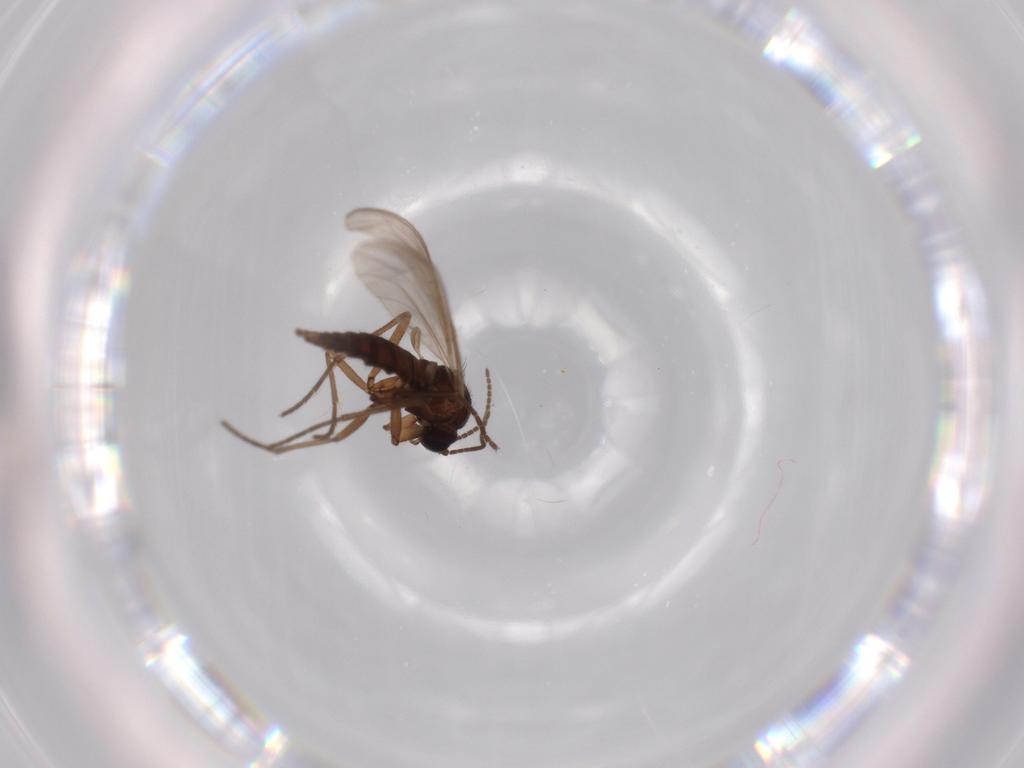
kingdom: Animalia
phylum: Arthropoda
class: Insecta
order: Diptera
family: Sciaridae
